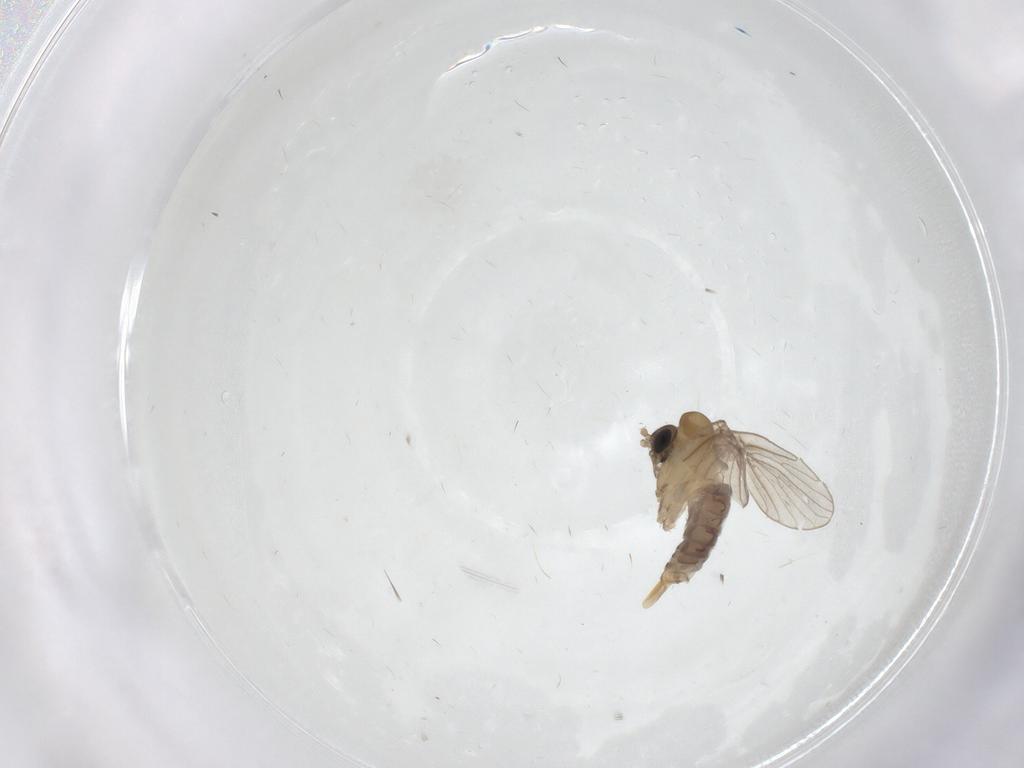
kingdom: Animalia
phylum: Arthropoda
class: Insecta
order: Diptera
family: Psychodidae
